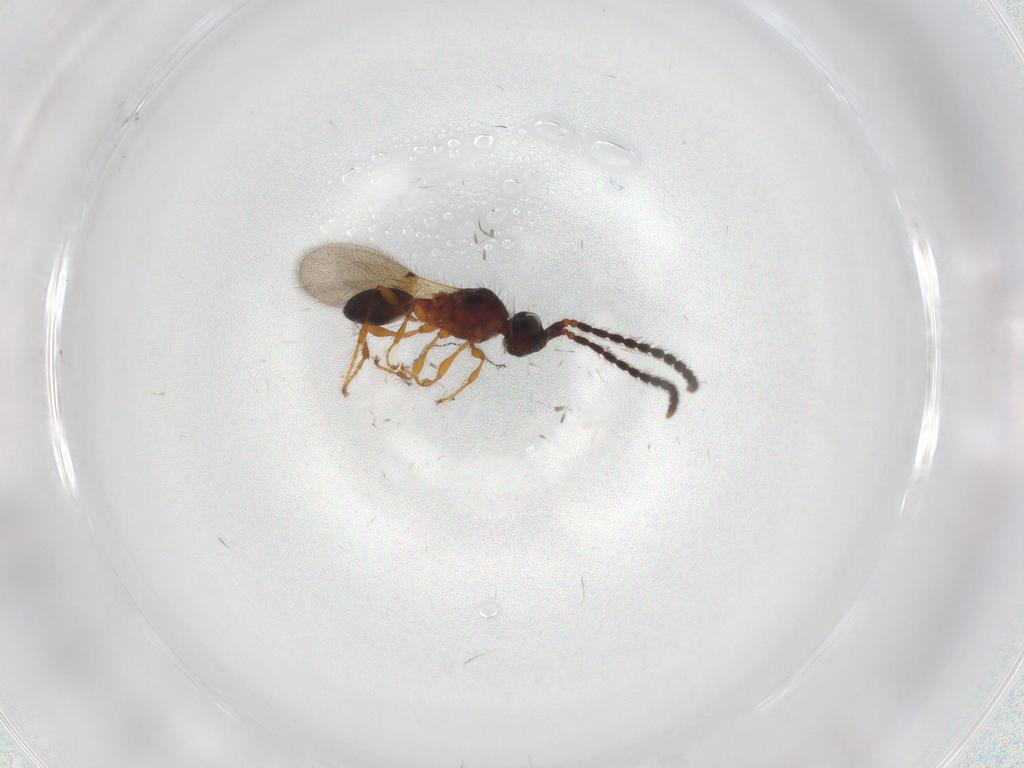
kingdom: Animalia
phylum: Arthropoda
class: Insecta
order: Hymenoptera
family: Diapriidae
